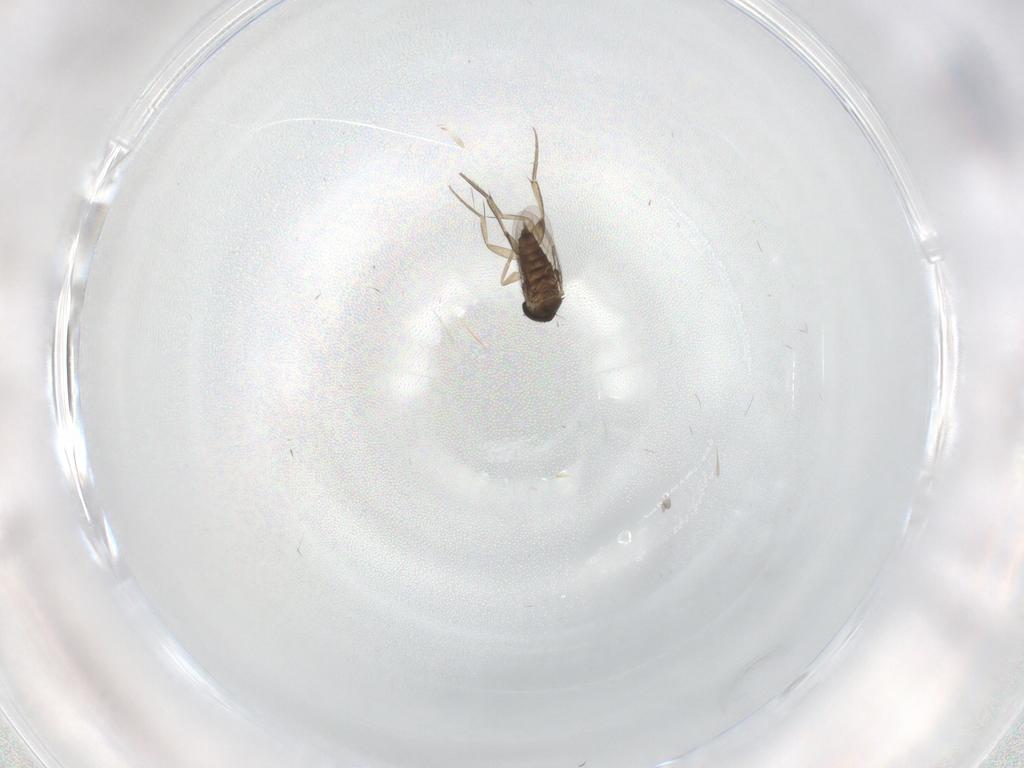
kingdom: Animalia
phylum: Arthropoda
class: Insecta
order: Diptera
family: Phoridae
